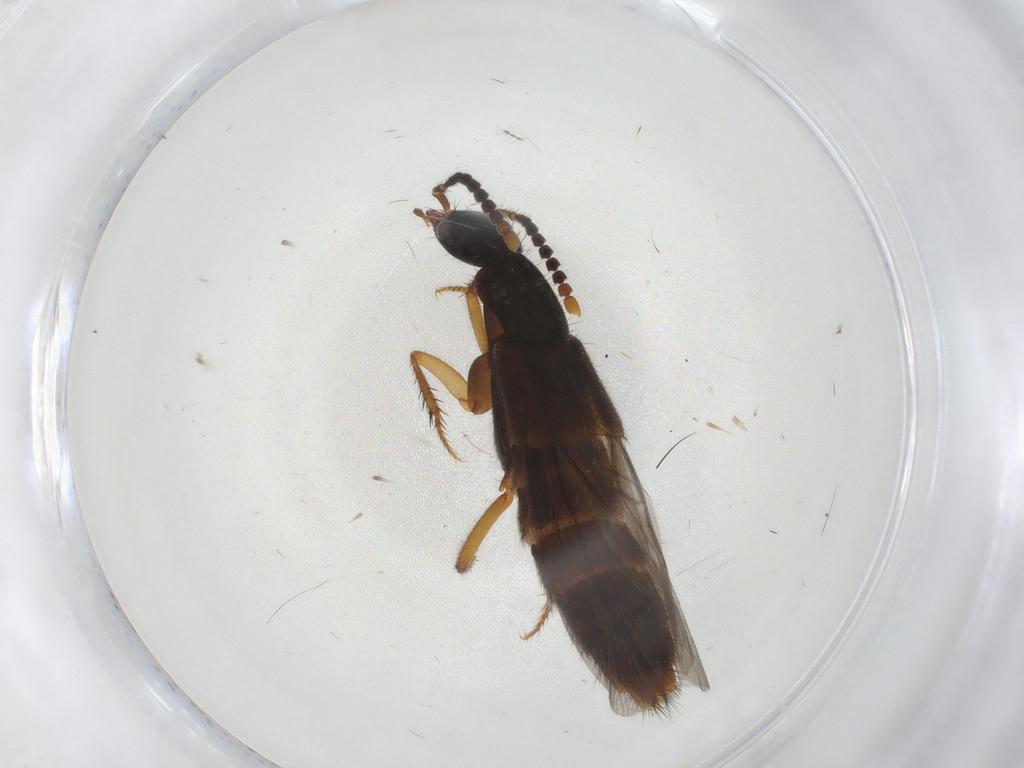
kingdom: Animalia
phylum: Arthropoda
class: Insecta
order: Coleoptera
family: Staphylinidae
